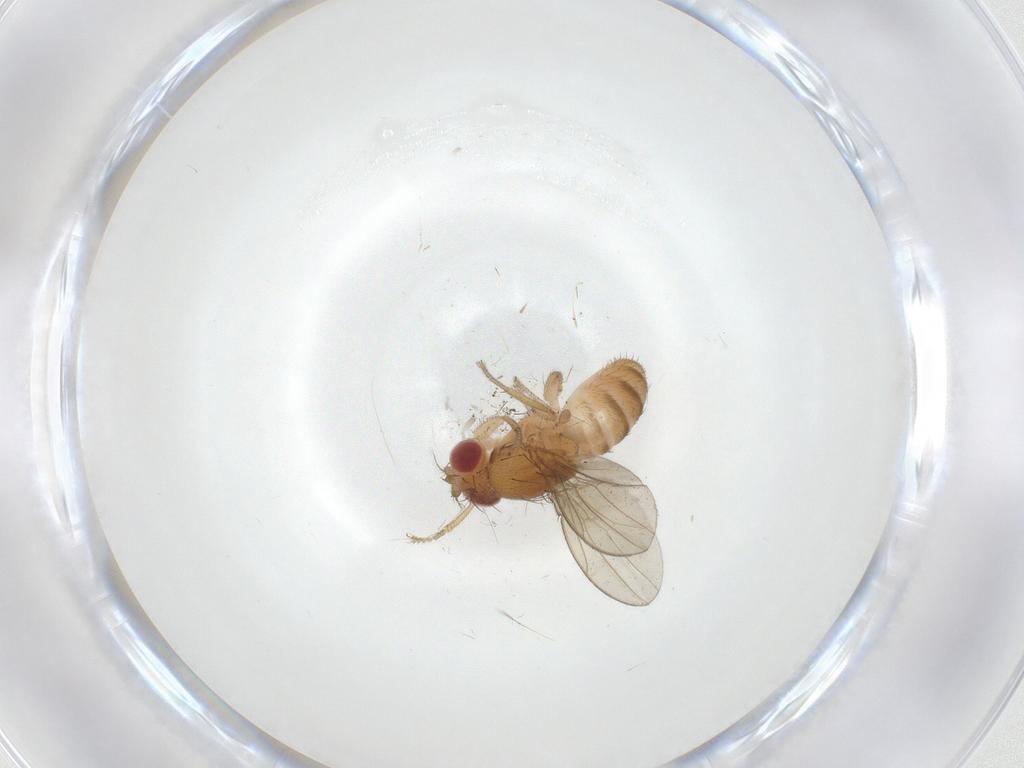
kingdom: Animalia
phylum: Arthropoda
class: Insecta
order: Diptera
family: Drosophilidae
